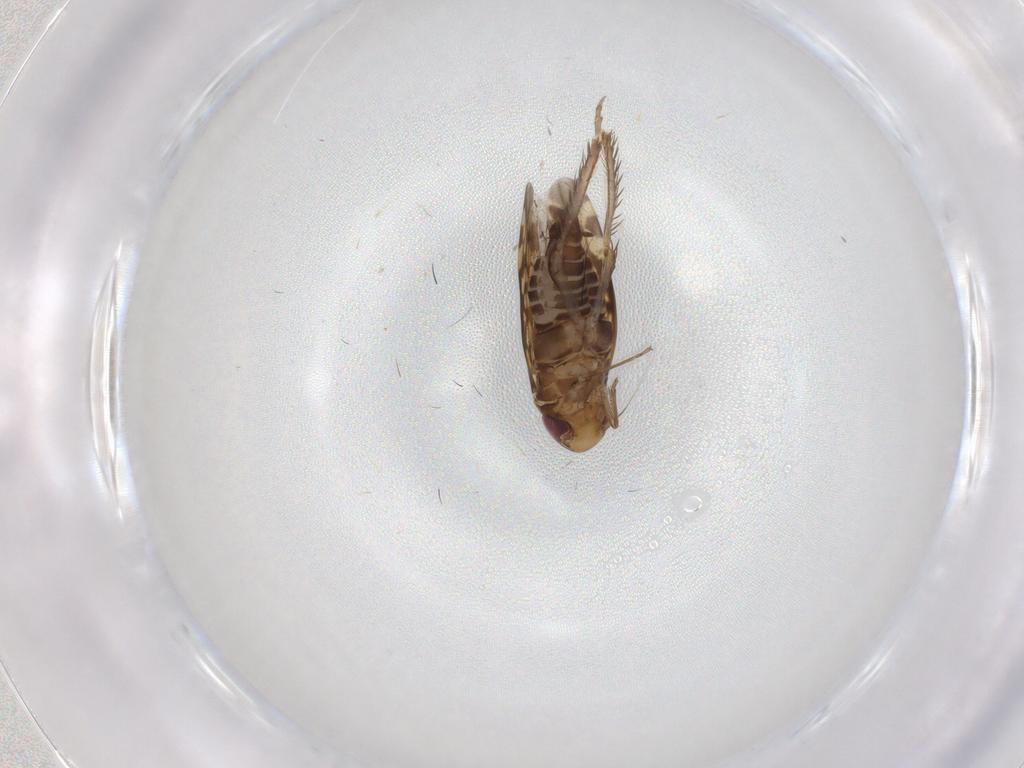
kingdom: Animalia
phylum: Arthropoda
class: Insecta
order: Hemiptera
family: Cicadellidae
